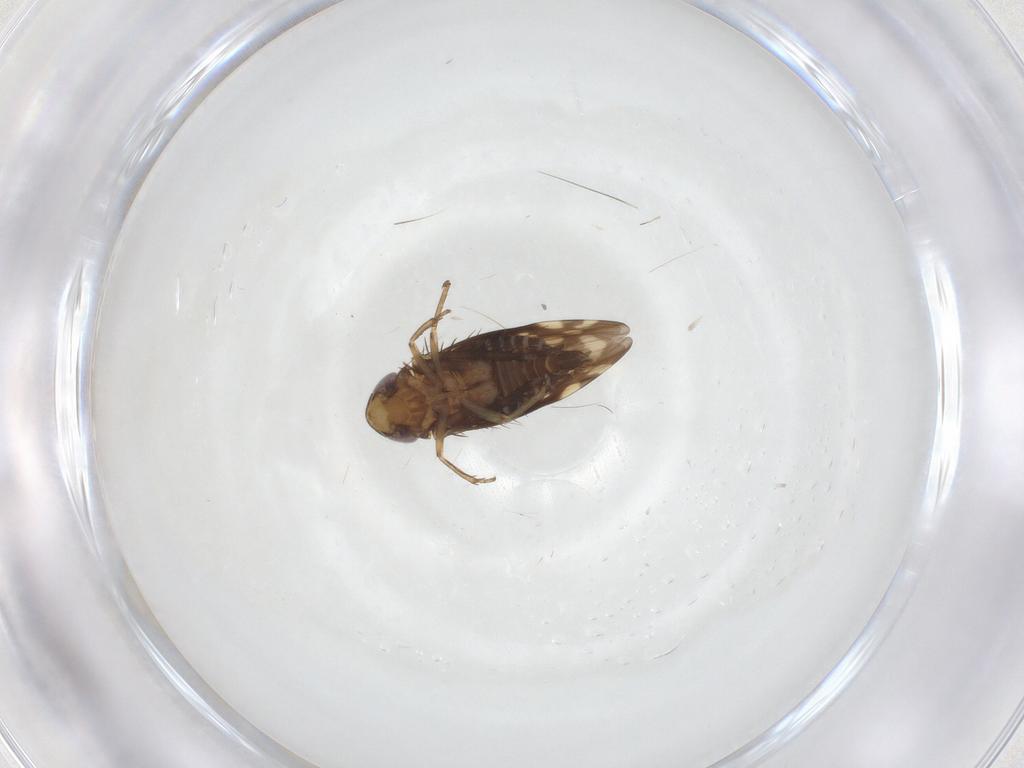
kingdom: Animalia
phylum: Arthropoda
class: Insecta
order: Hemiptera
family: Cicadellidae
